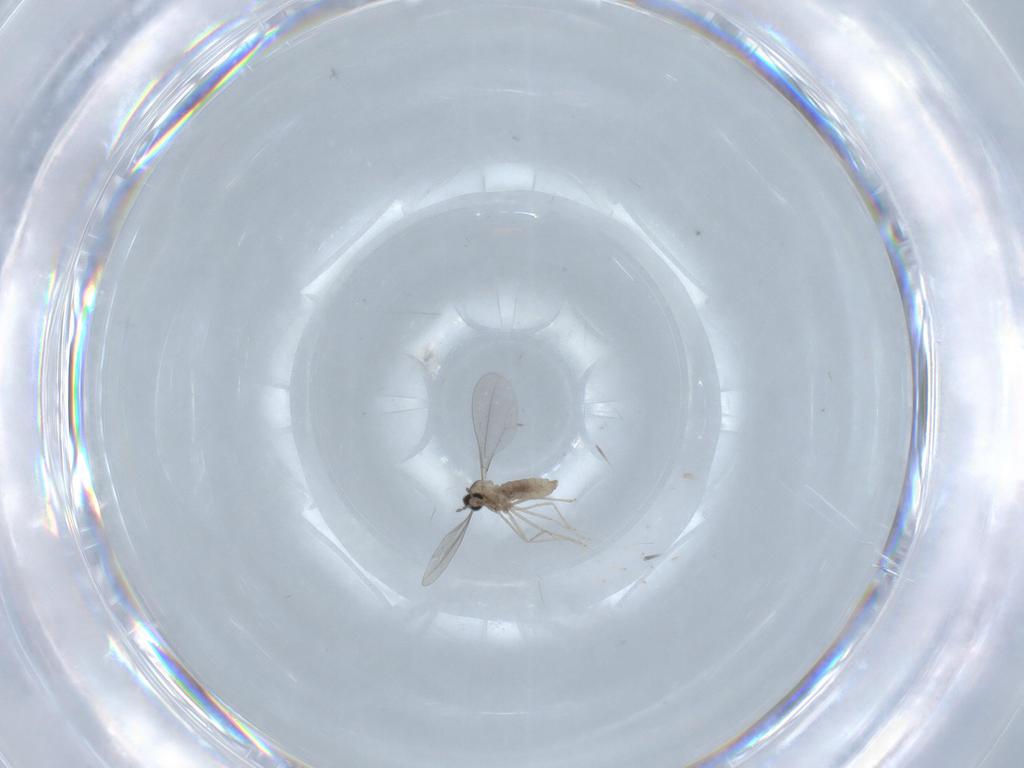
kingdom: Animalia
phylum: Arthropoda
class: Insecta
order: Diptera
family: Cecidomyiidae
